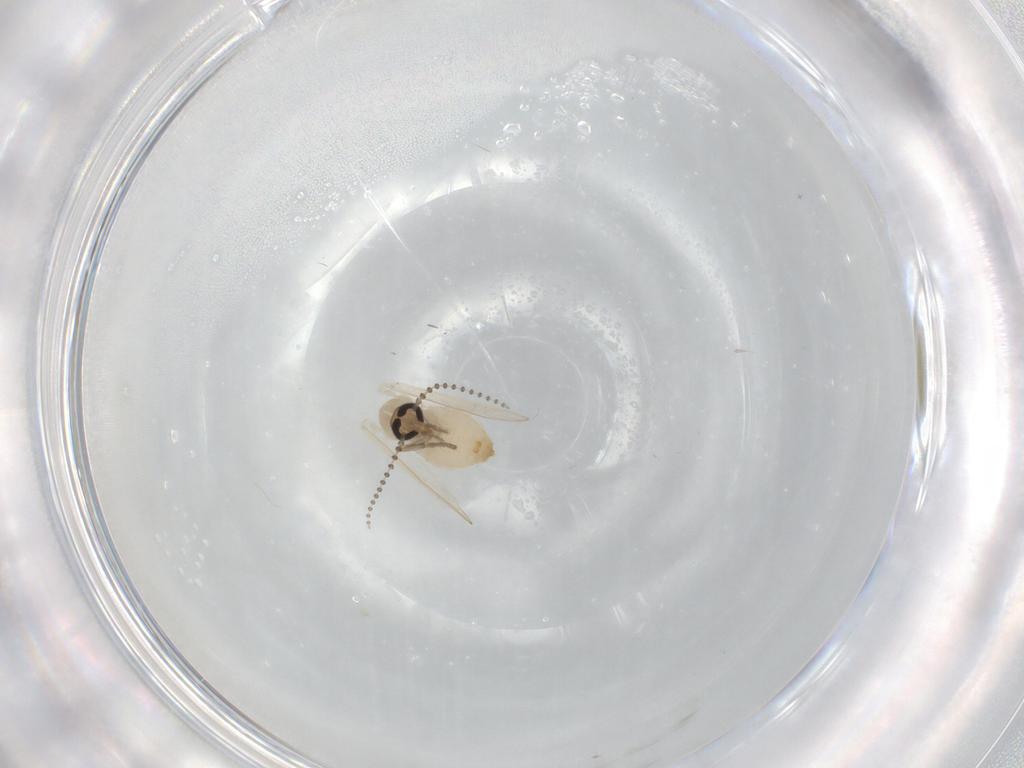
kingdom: Animalia
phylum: Arthropoda
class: Insecta
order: Diptera
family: Psychodidae
